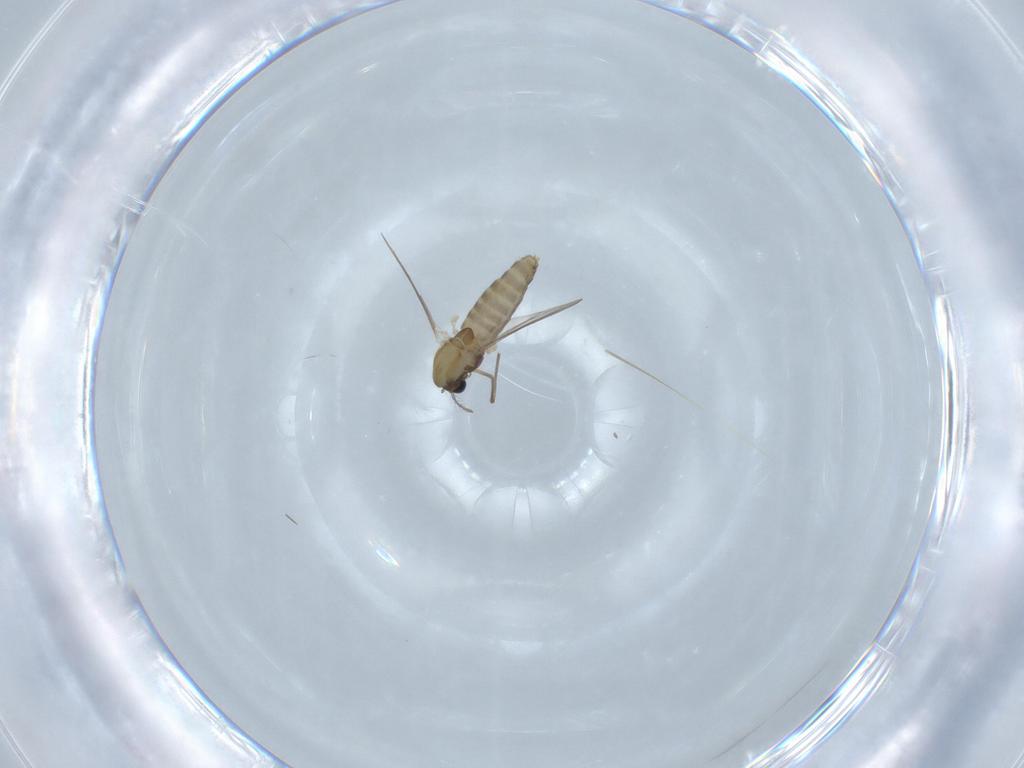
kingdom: Animalia
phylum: Arthropoda
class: Insecta
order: Diptera
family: Chironomidae
